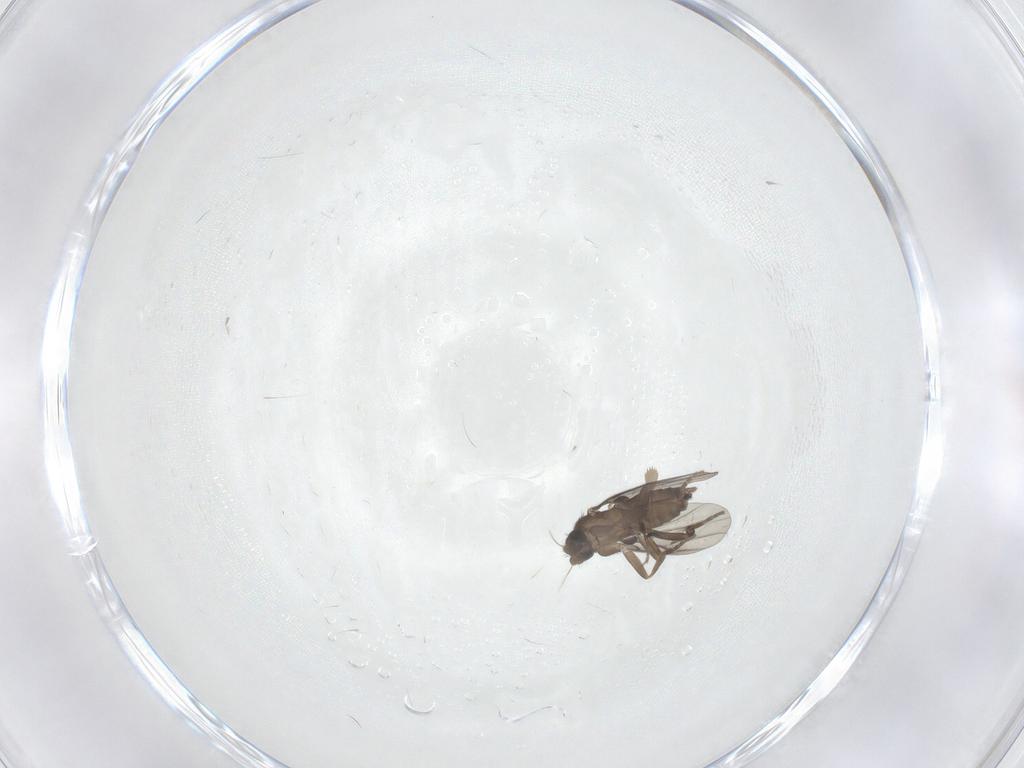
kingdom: Animalia
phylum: Arthropoda
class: Insecta
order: Diptera
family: Phoridae
